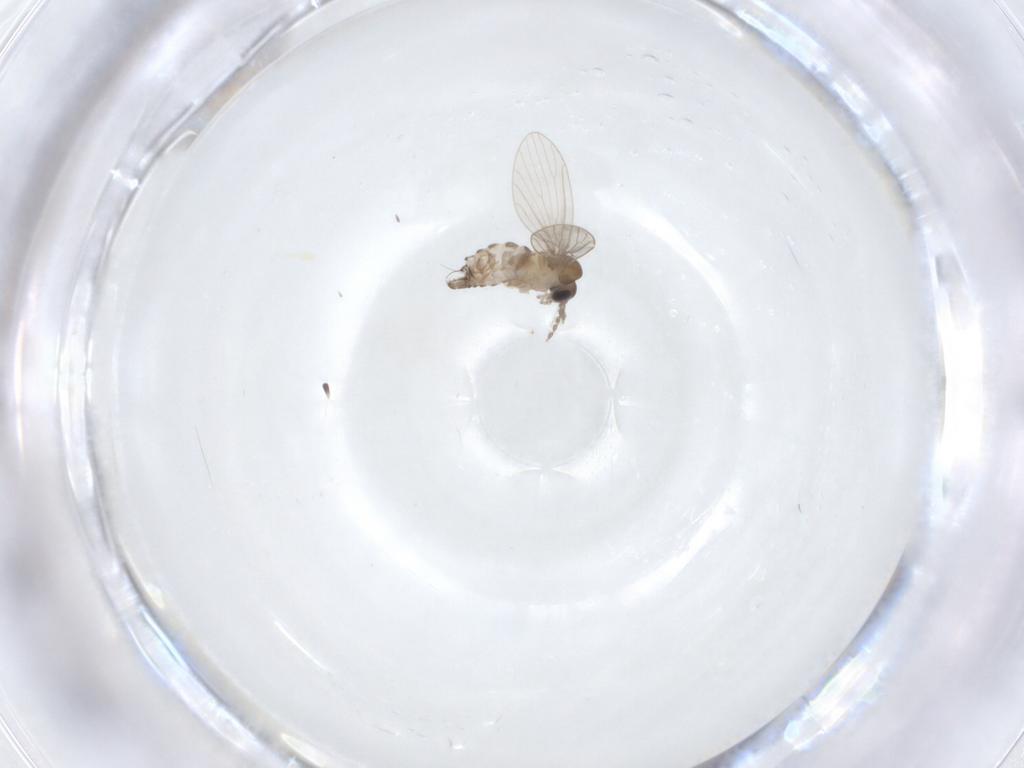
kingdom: Animalia
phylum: Arthropoda
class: Insecta
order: Diptera
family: Psychodidae
